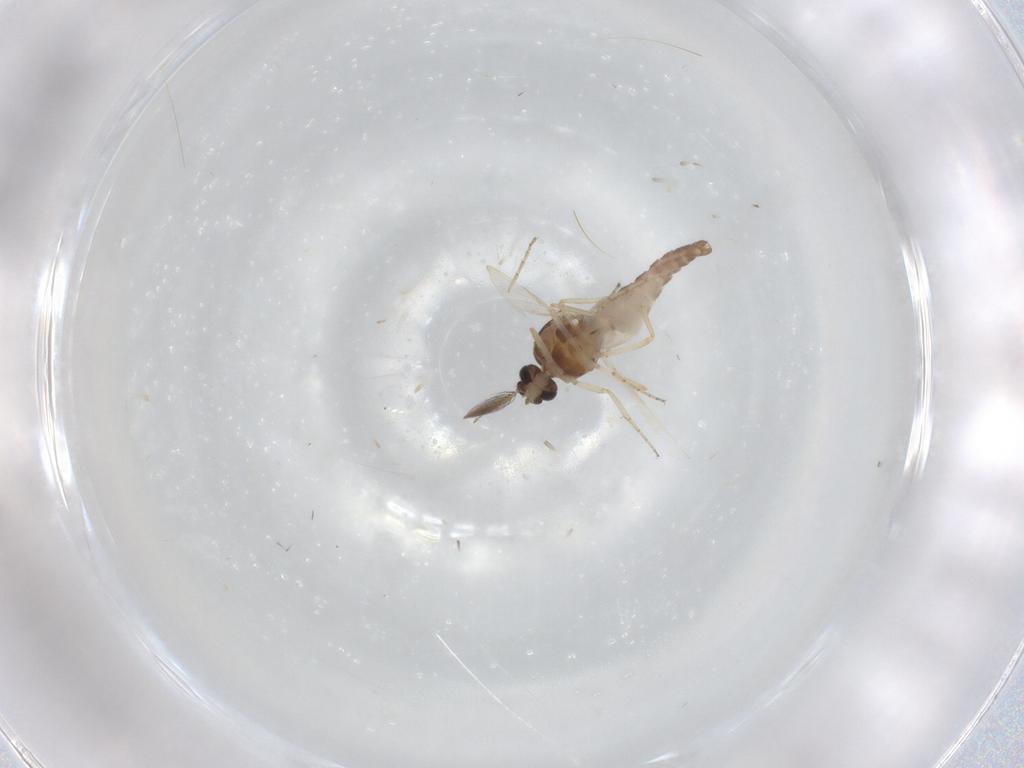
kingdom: Animalia
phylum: Arthropoda
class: Insecta
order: Diptera
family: Ceratopogonidae
